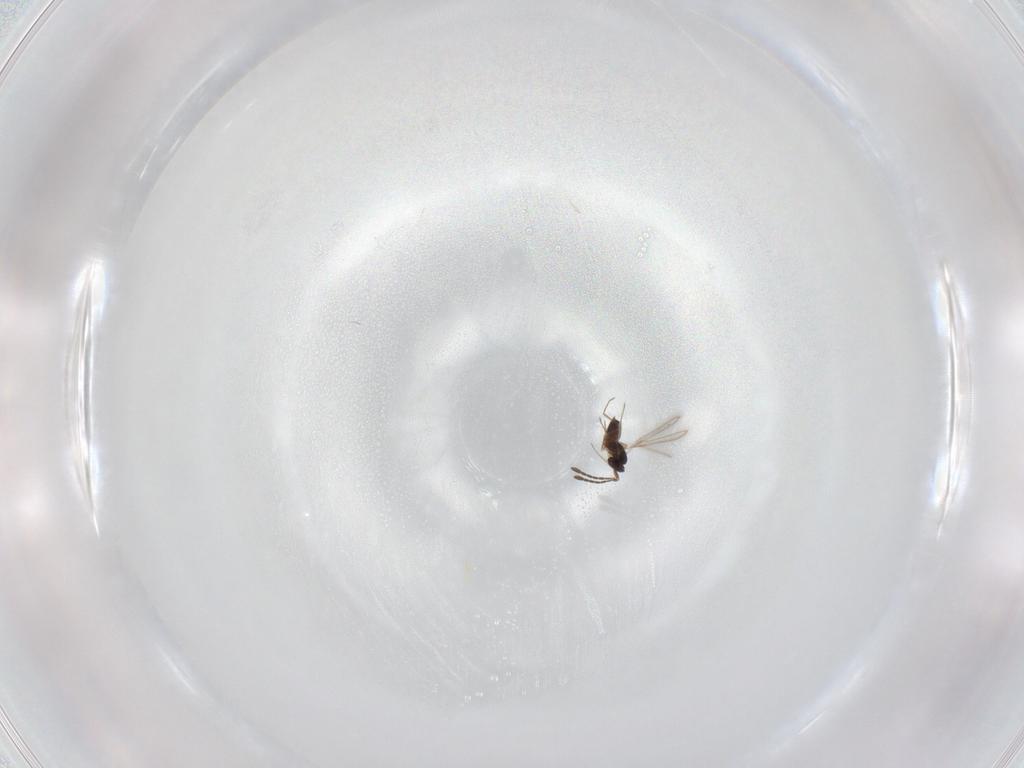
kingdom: Animalia
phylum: Arthropoda
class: Insecta
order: Hymenoptera
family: Braconidae
